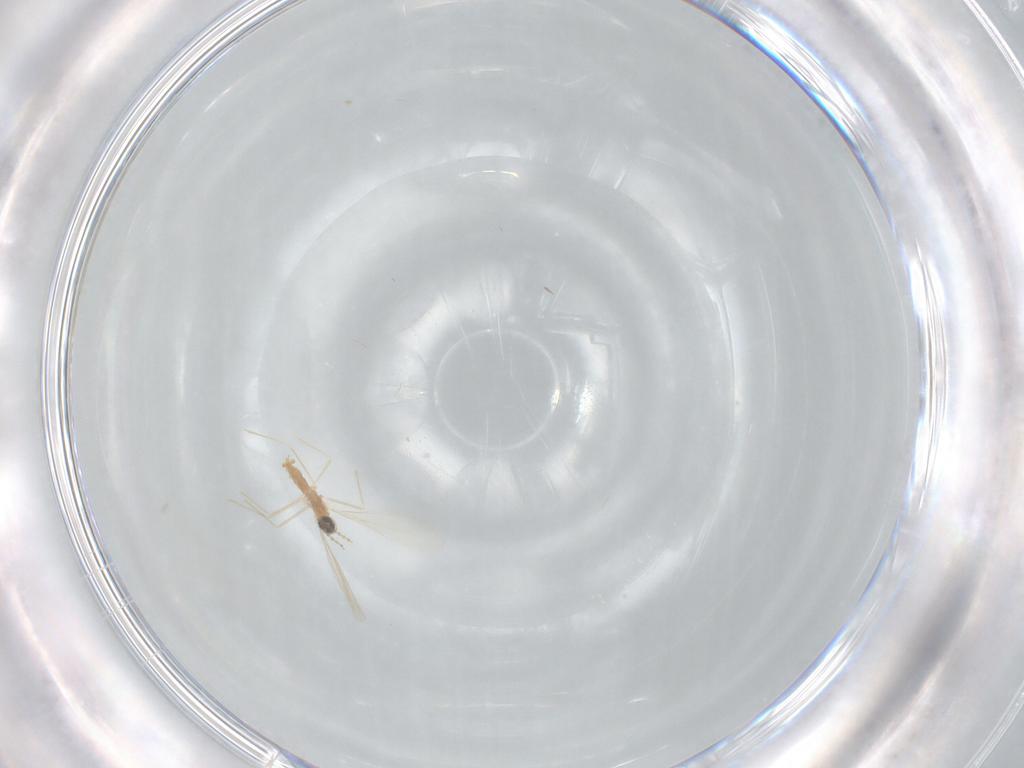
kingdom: Animalia
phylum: Arthropoda
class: Insecta
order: Diptera
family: Cecidomyiidae
